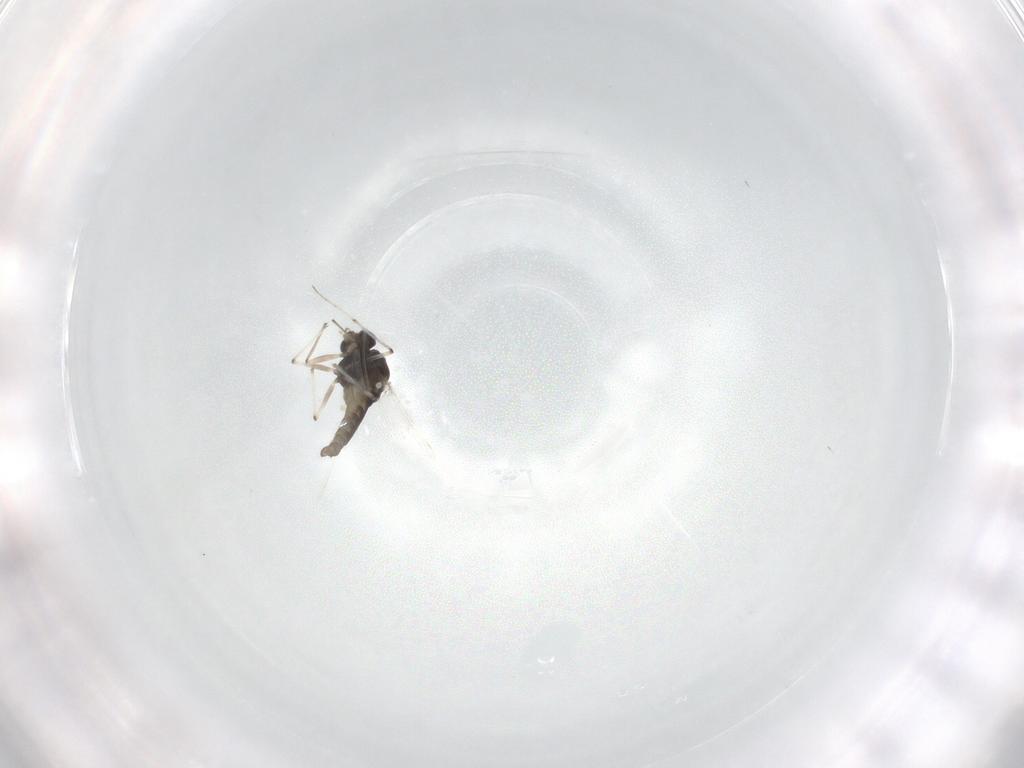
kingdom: Animalia
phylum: Arthropoda
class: Insecta
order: Diptera
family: Chironomidae
